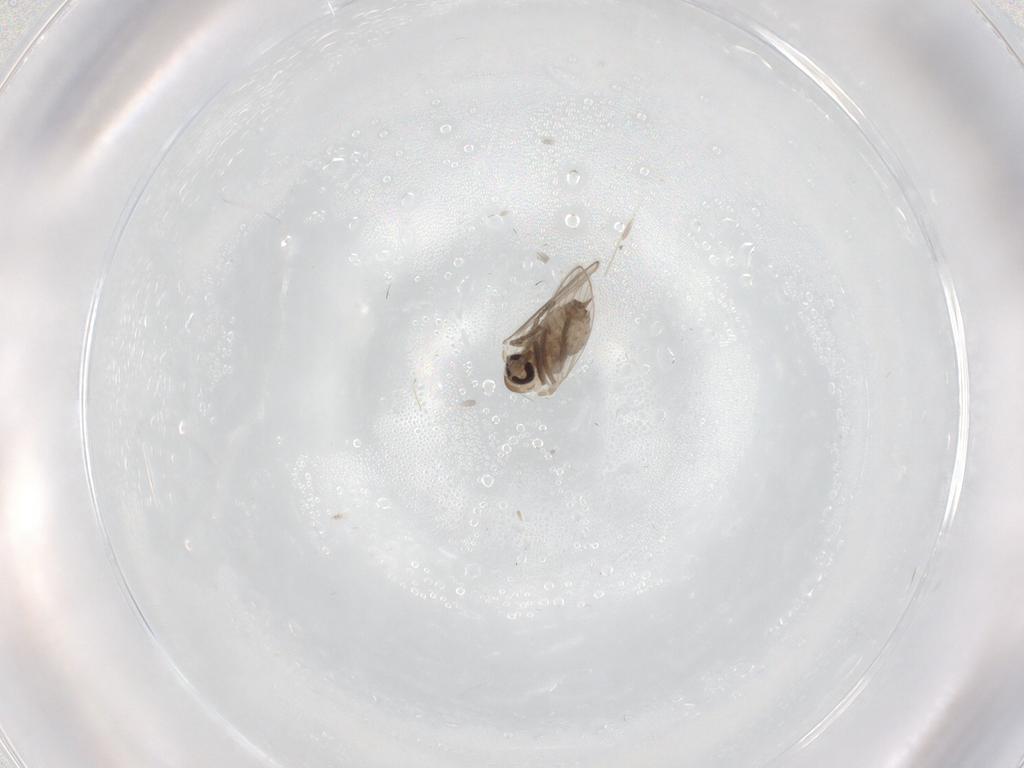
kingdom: Animalia
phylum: Arthropoda
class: Insecta
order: Diptera
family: Psychodidae
